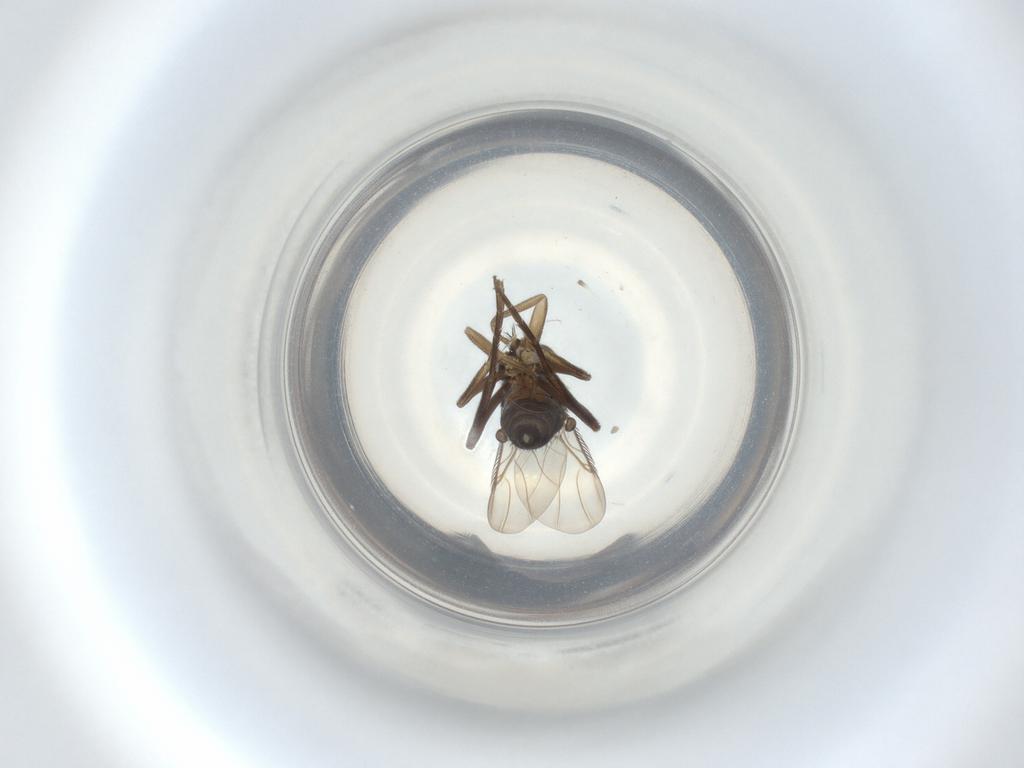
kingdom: Animalia
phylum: Arthropoda
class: Insecta
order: Diptera
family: Phoridae
